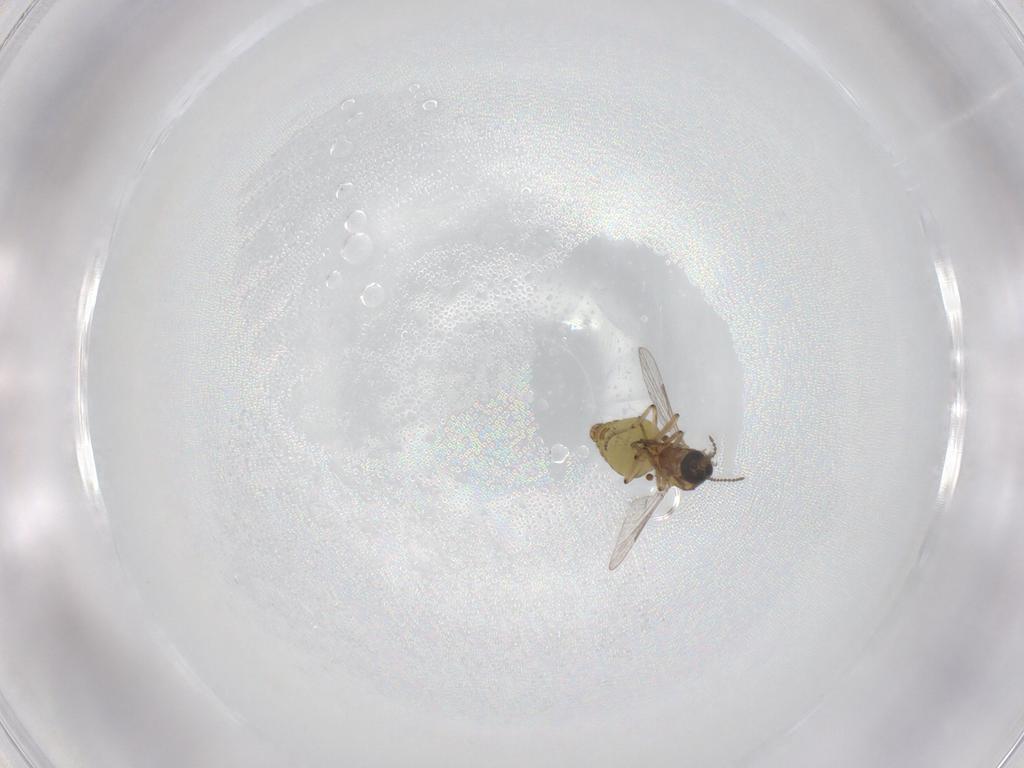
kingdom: Animalia
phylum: Arthropoda
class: Insecta
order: Diptera
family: Ceratopogonidae
